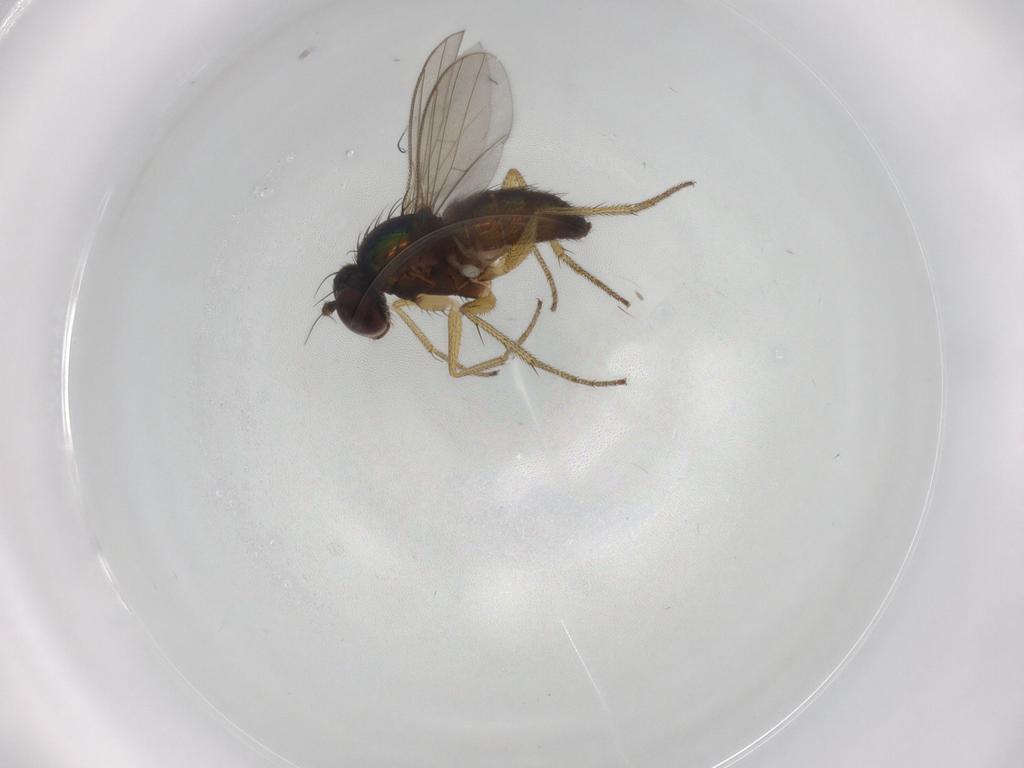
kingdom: Animalia
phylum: Arthropoda
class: Insecta
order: Diptera
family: Dolichopodidae
